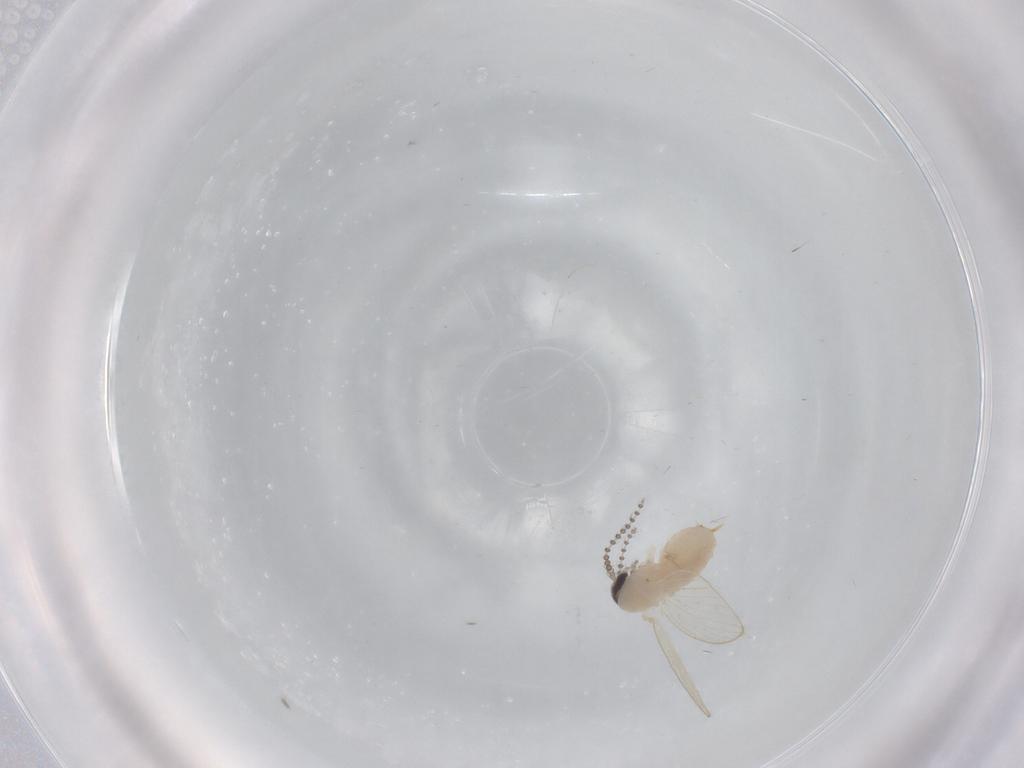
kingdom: Animalia
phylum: Arthropoda
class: Insecta
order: Diptera
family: Psychodidae
